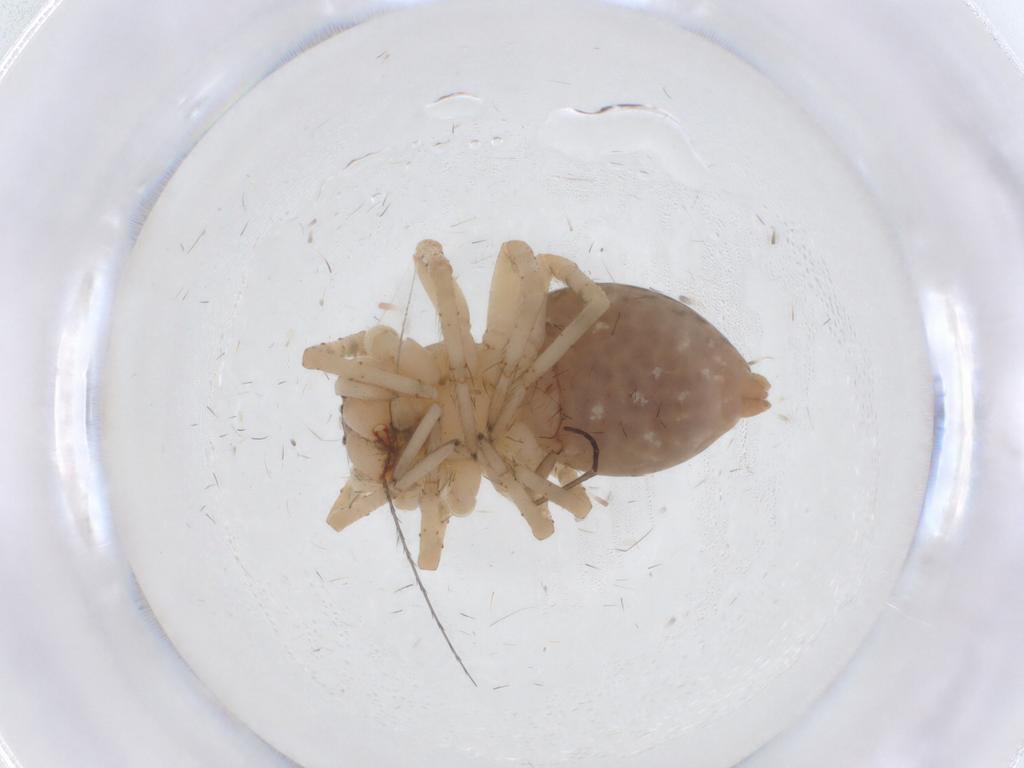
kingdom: Animalia
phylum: Arthropoda
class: Arachnida
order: Araneae
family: Dictynidae
